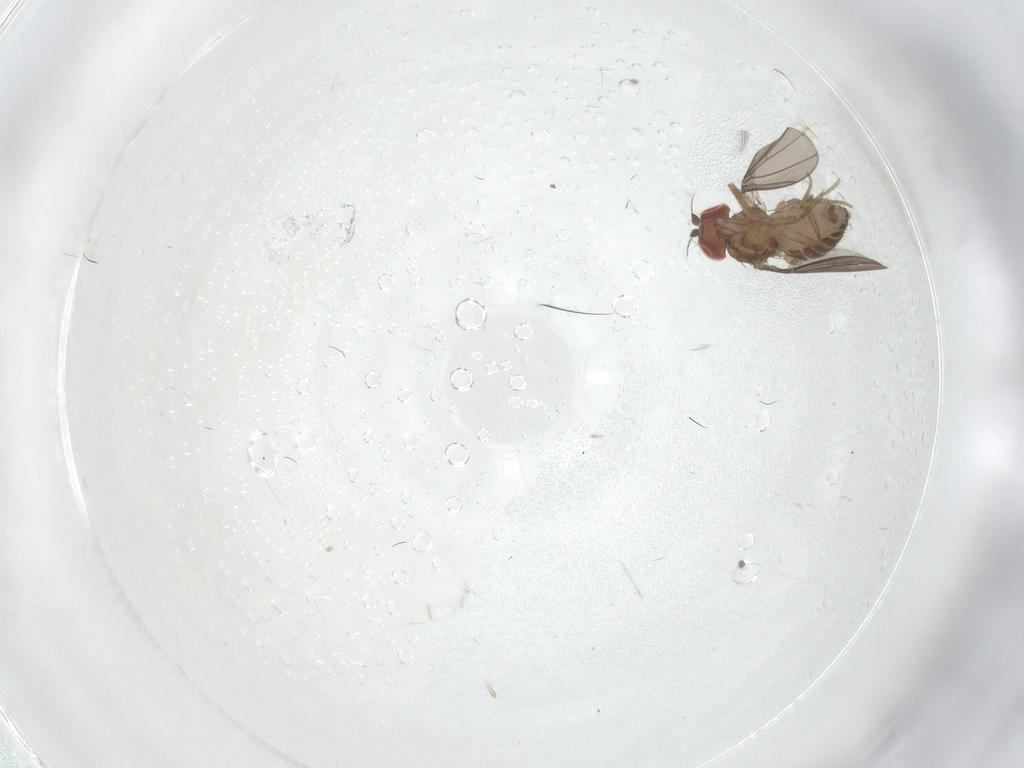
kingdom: Animalia
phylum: Arthropoda
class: Insecta
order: Diptera
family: Drosophilidae
